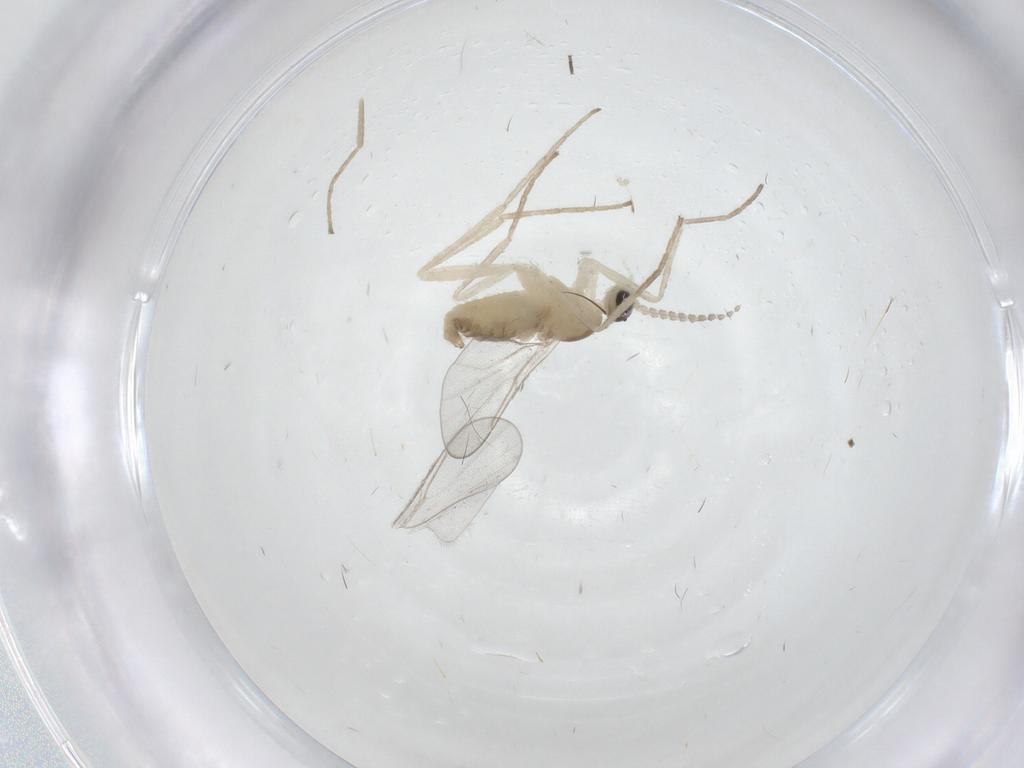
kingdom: Animalia
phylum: Arthropoda
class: Insecta
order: Diptera
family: Cecidomyiidae
